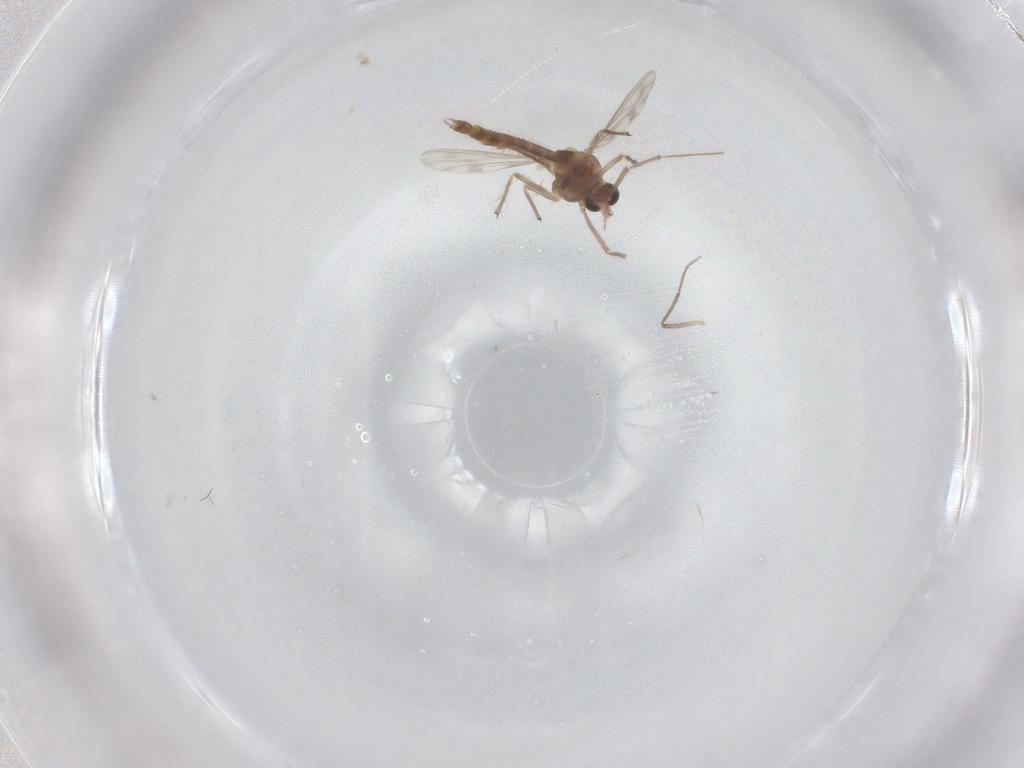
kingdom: Animalia
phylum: Arthropoda
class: Insecta
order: Diptera
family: Chironomidae
